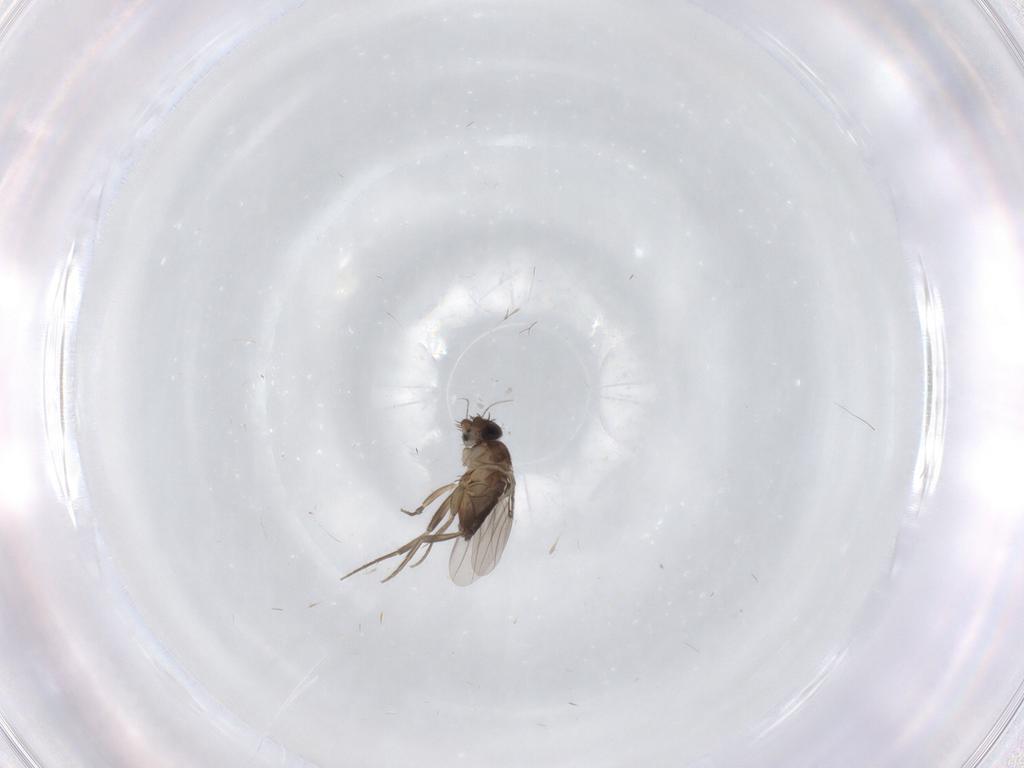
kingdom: Animalia
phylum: Arthropoda
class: Insecta
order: Diptera
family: Phoridae
